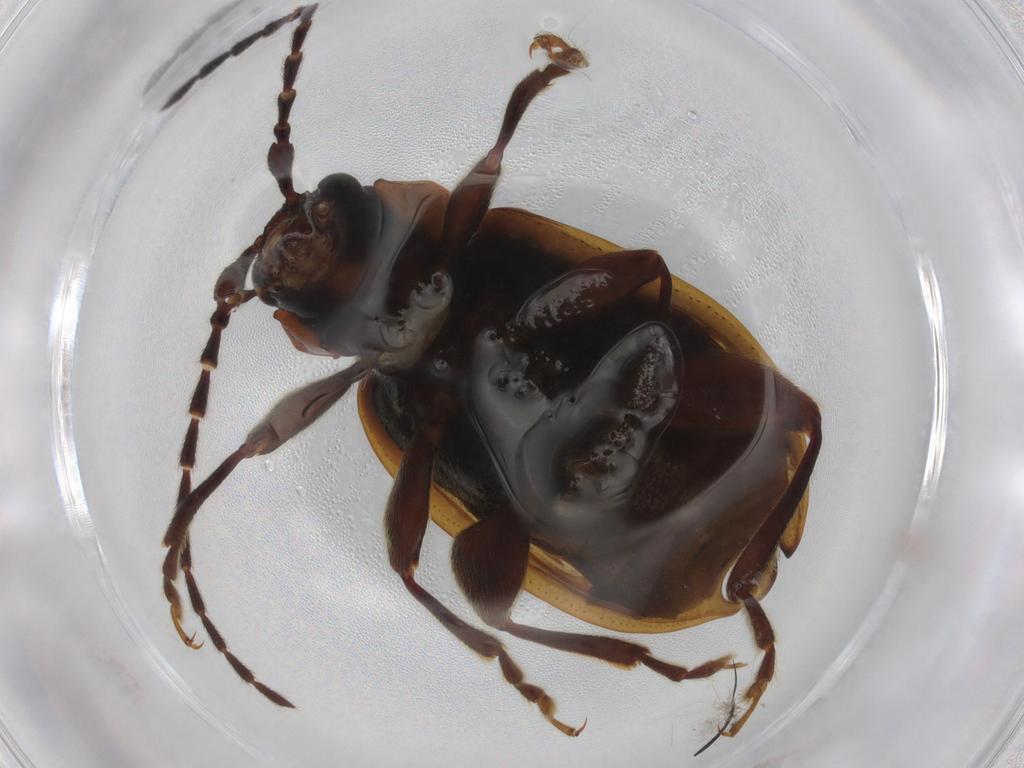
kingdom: Animalia
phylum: Arthropoda
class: Insecta
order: Coleoptera
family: Chrysomelidae
